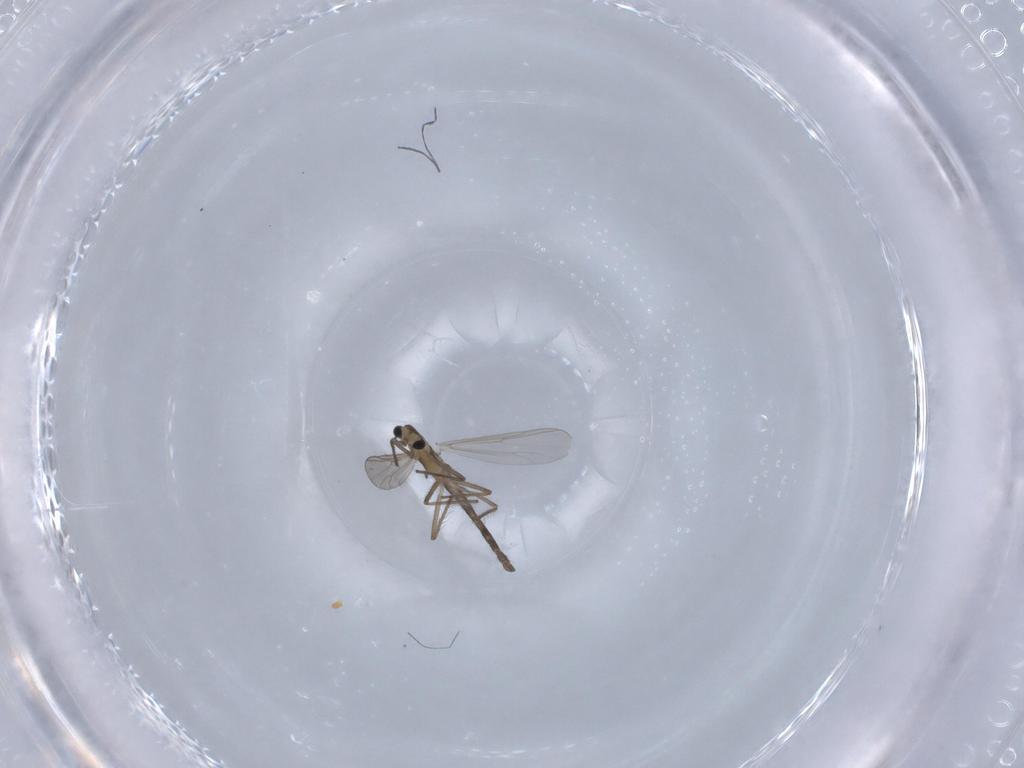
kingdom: Animalia
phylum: Arthropoda
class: Insecta
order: Diptera
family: Chironomidae
